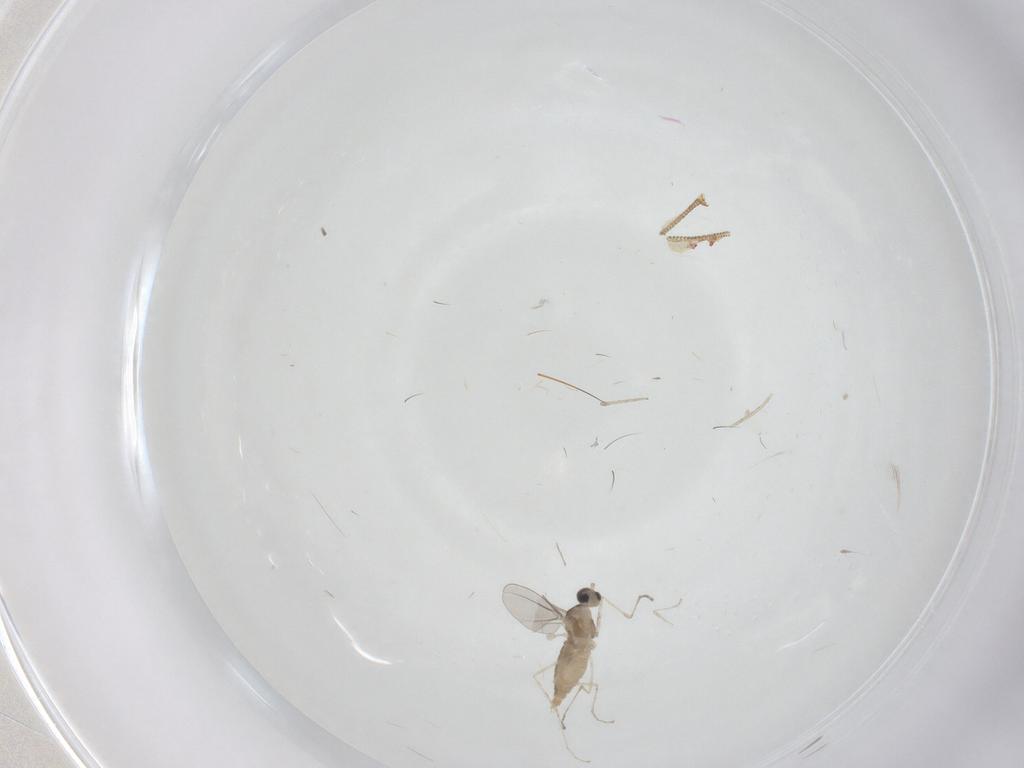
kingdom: Animalia
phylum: Arthropoda
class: Insecta
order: Diptera
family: Cecidomyiidae
